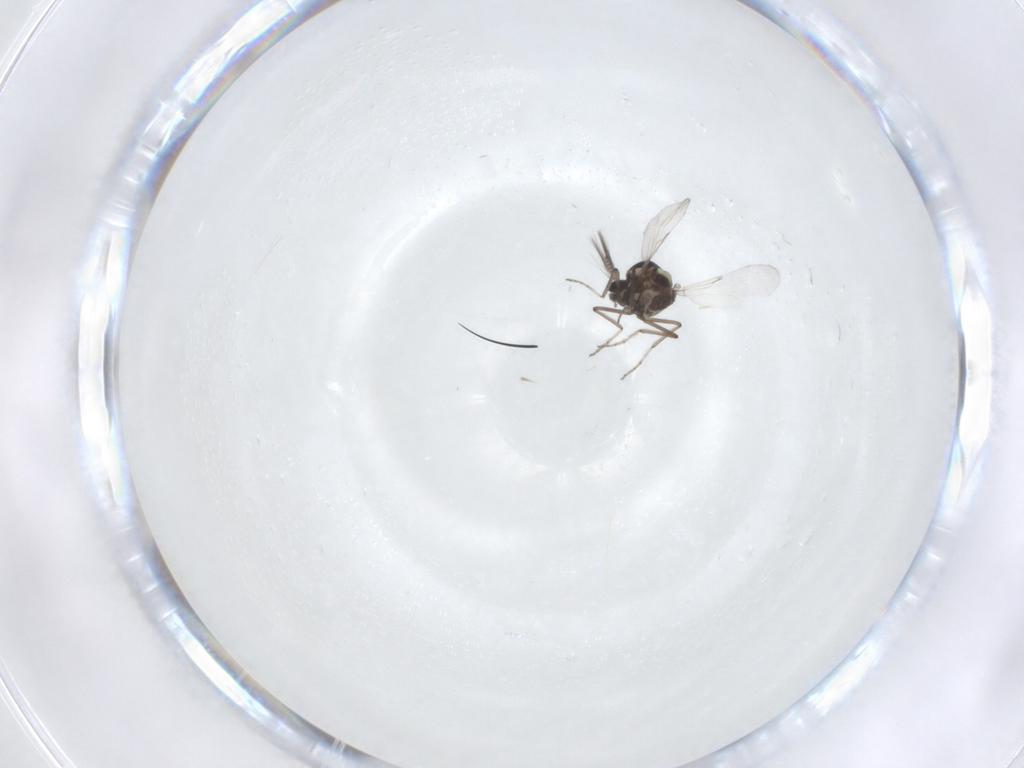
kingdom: Animalia
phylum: Arthropoda
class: Insecta
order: Diptera
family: Ceratopogonidae
